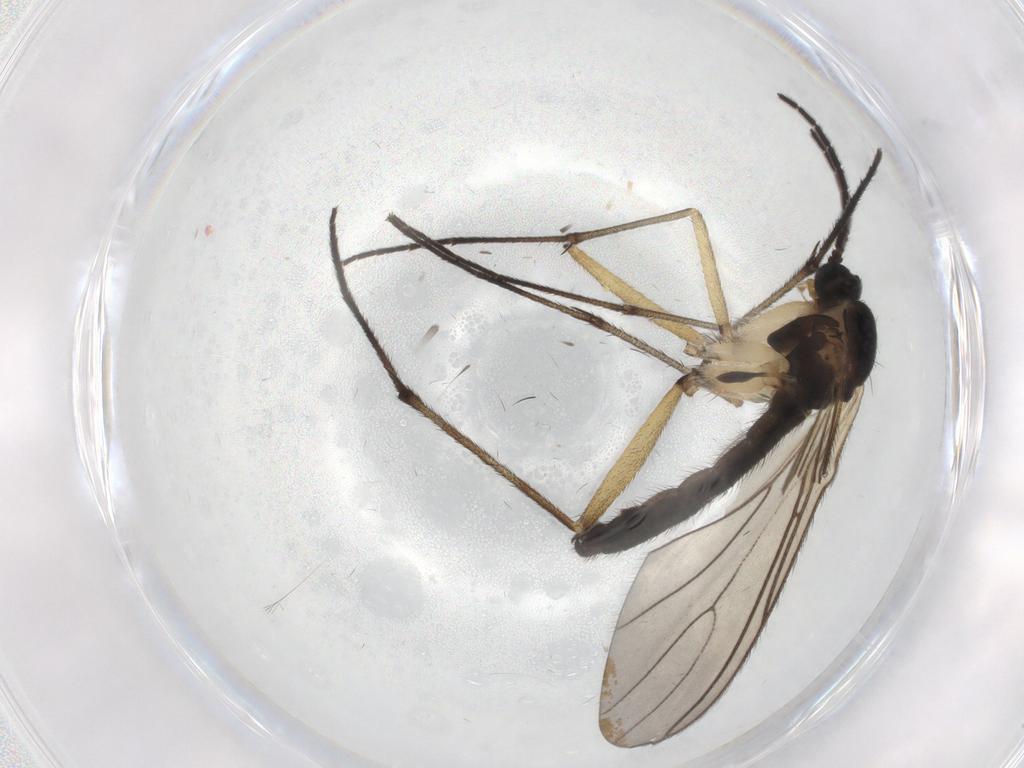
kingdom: Animalia
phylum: Arthropoda
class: Insecta
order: Diptera
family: Sciaridae
